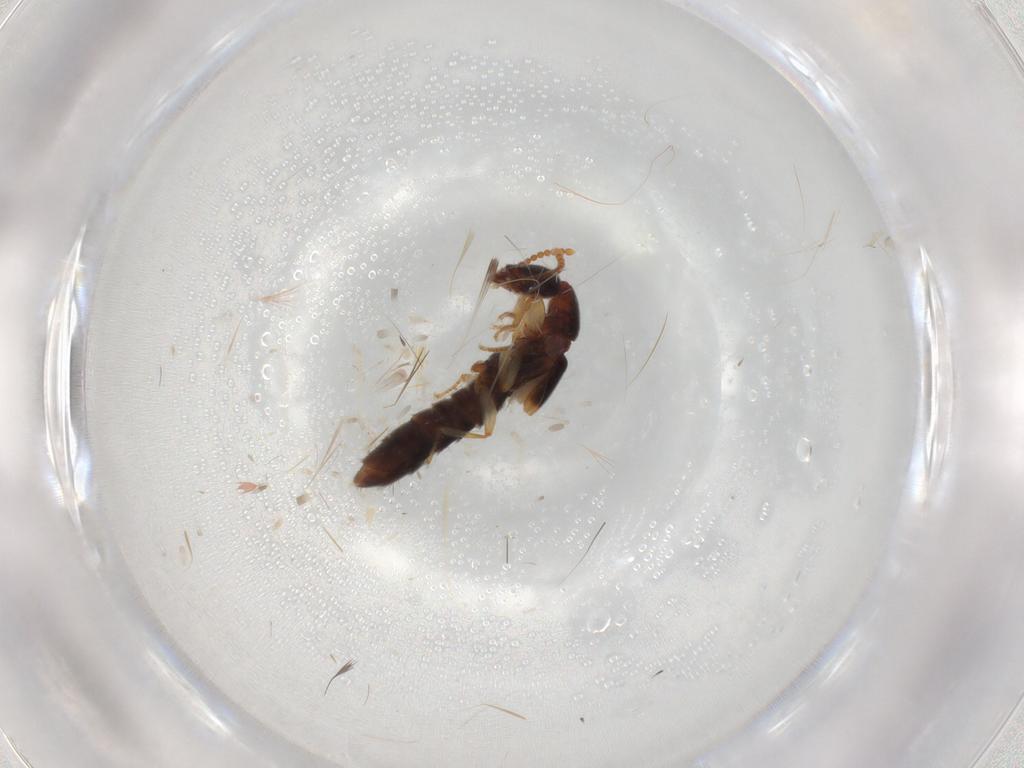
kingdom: Animalia
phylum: Arthropoda
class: Insecta
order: Coleoptera
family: Staphylinidae
